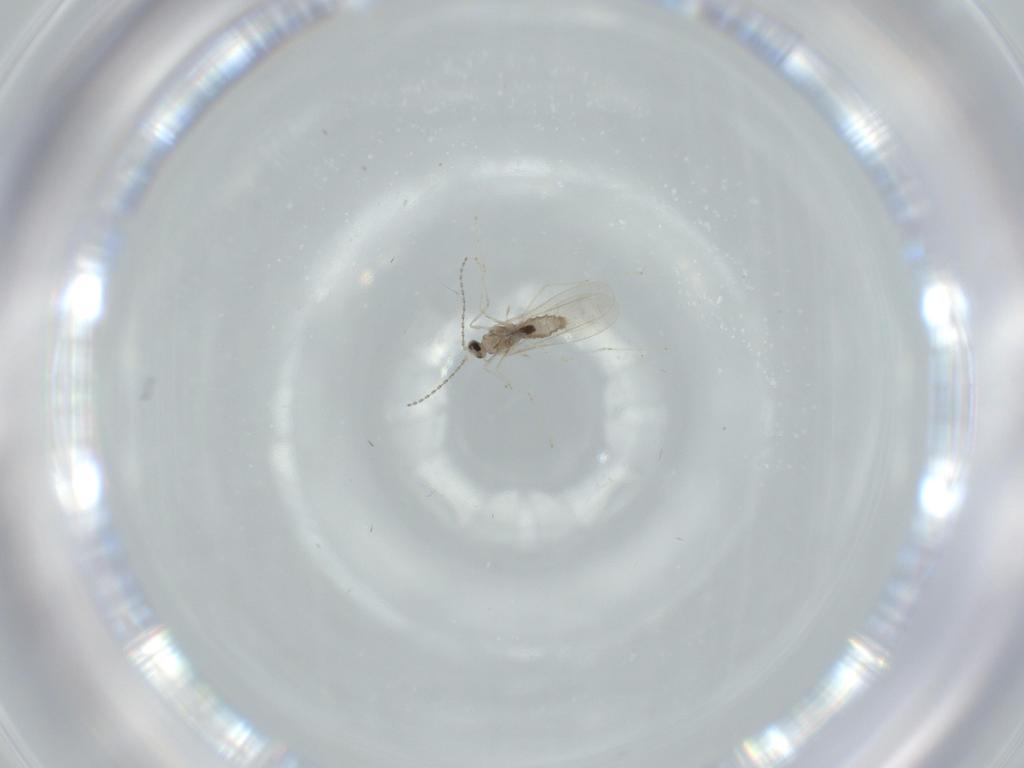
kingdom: Animalia
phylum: Arthropoda
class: Insecta
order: Diptera
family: Cecidomyiidae
